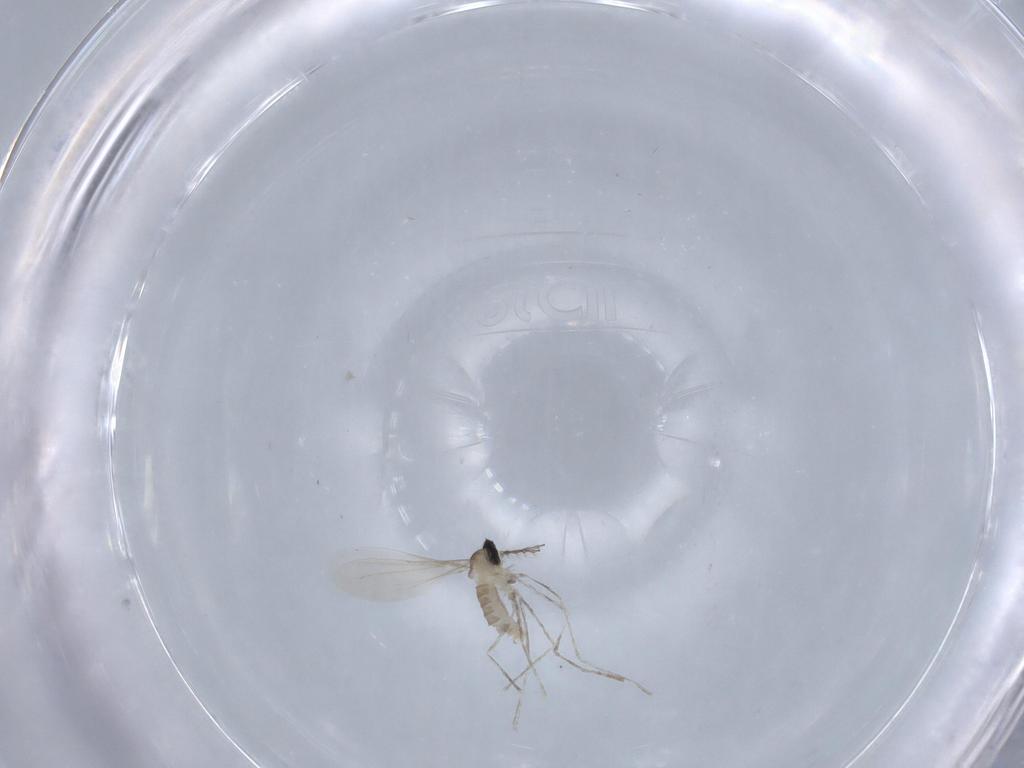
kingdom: Animalia
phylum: Arthropoda
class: Insecta
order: Diptera
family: Cecidomyiidae
